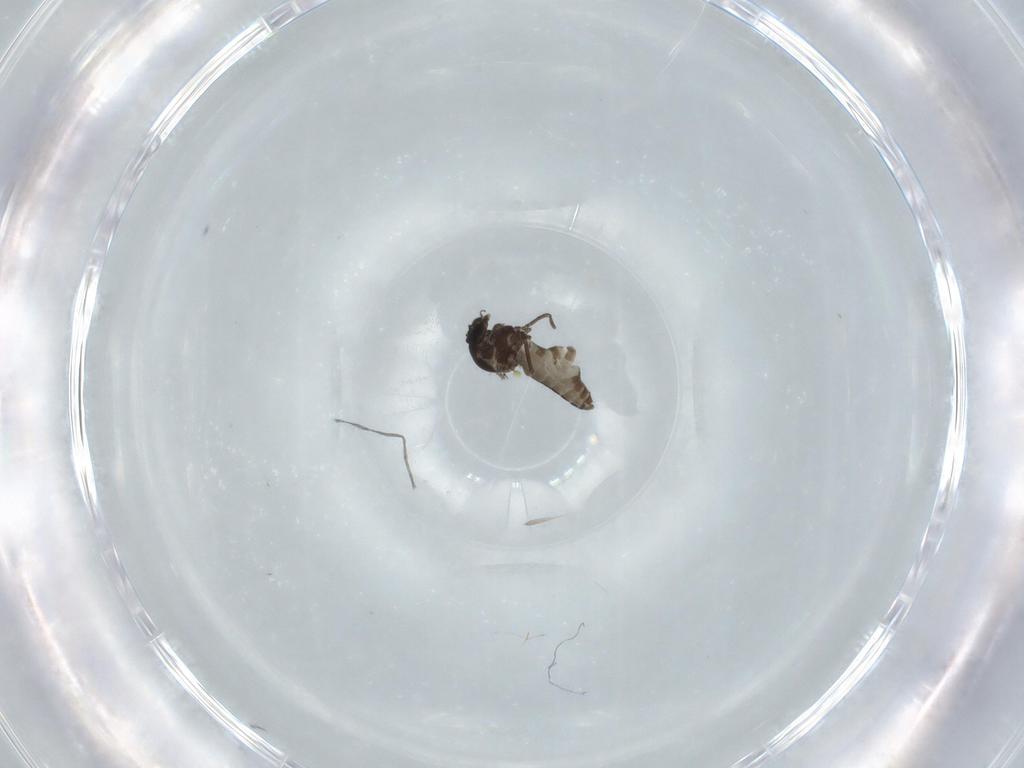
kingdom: Animalia
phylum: Arthropoda
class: Insecta
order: Diptera
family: Ceratopogonidae
